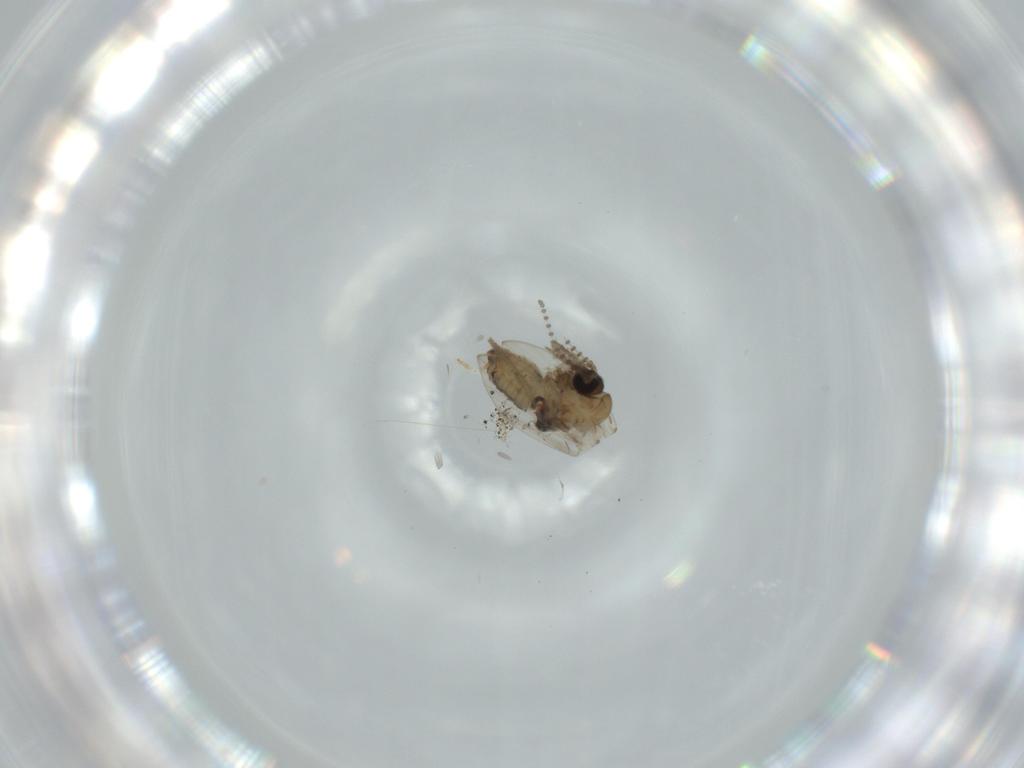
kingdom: Animalia
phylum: Arthropoda
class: Insecta
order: Diptera
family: Psychodidae
